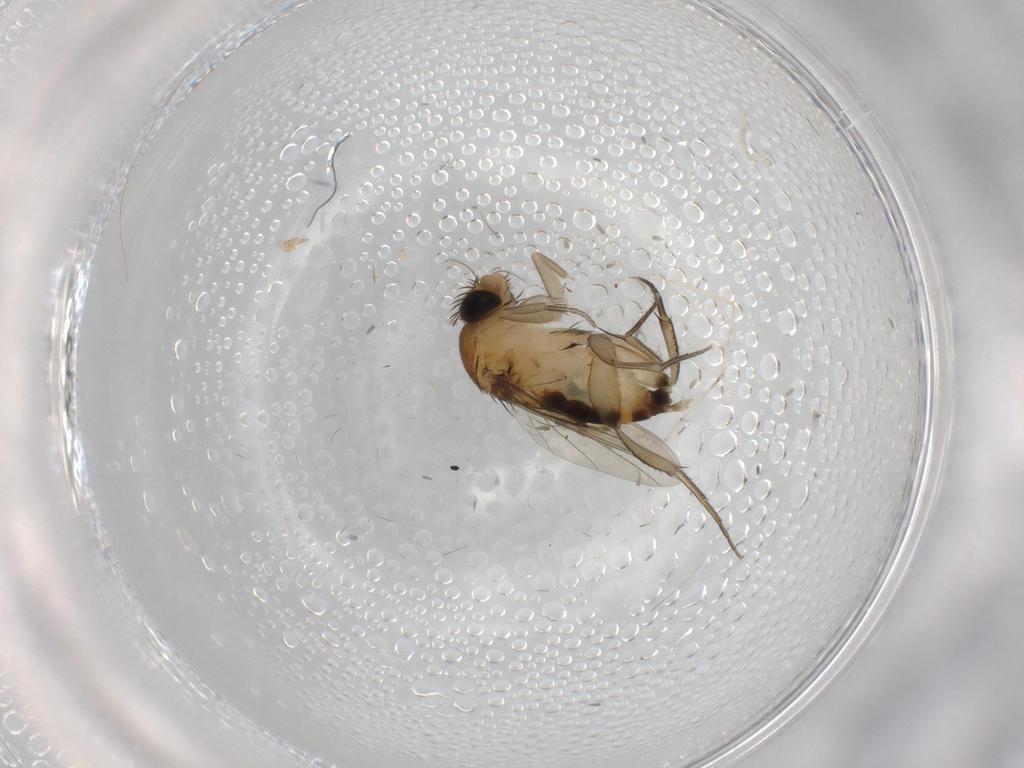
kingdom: Animalia
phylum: Arthropoda
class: Insecta
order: Diptera
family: Phoridae
